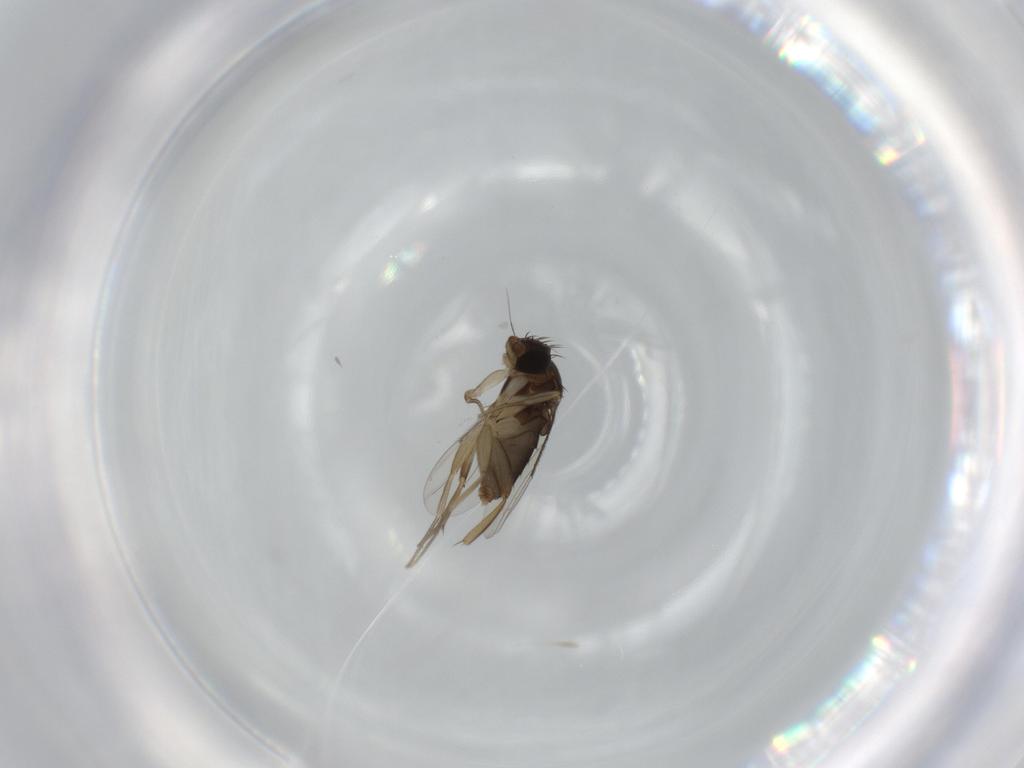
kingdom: Animalia
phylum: Arthropoda
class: Insecta
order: Diptera
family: Phoridae
